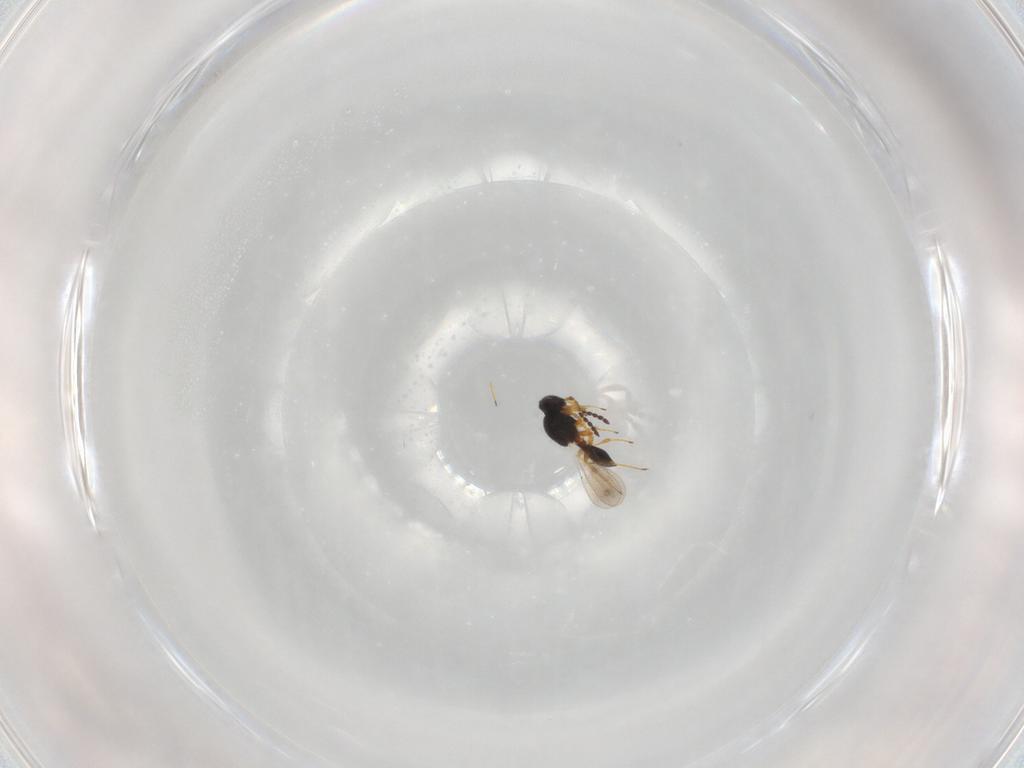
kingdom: Animalia
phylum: Arthropoda
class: Insecta
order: Hymenoptera
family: Platygastridae
